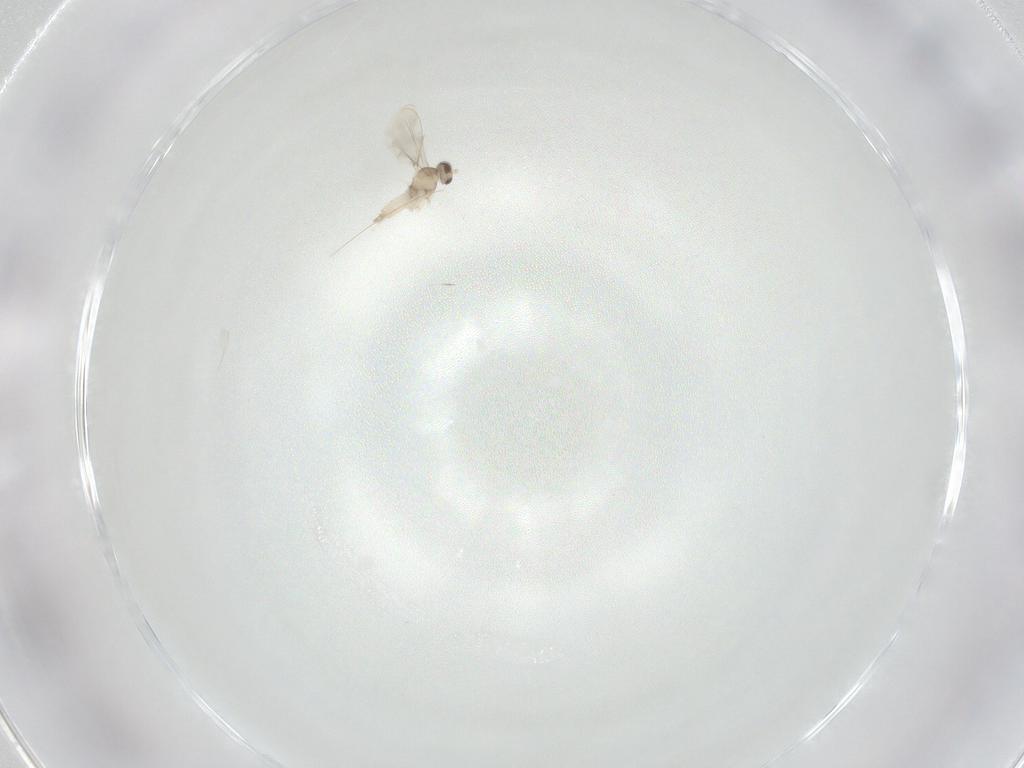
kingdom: Animalia
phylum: Arthropoda
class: Insecta
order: Diptera
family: Cecidomyiidae
